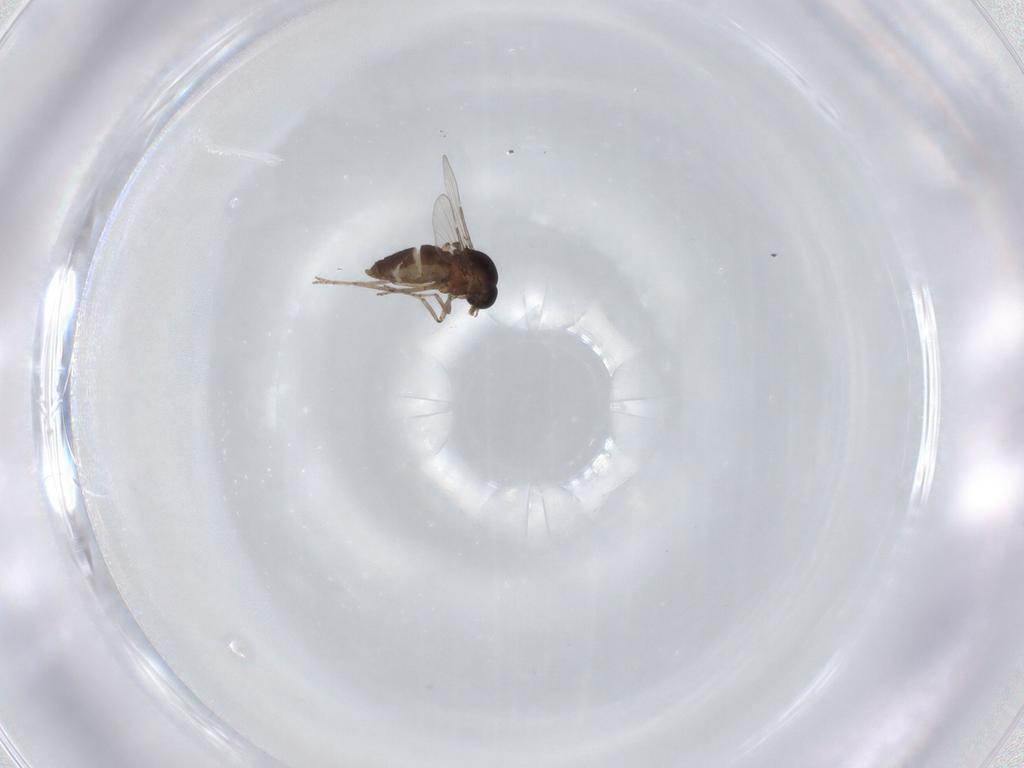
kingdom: Animalia
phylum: Arthropoda
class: Insecta
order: Diptera
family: Ceratopogonidae
